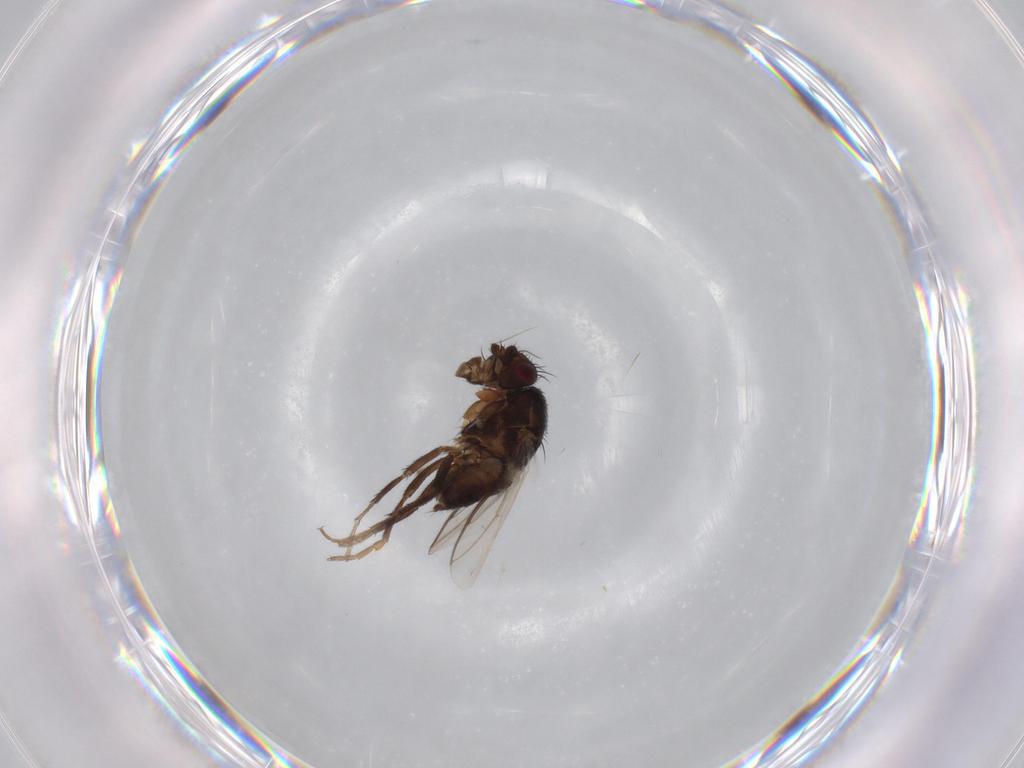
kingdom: Animalia
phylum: Arthropoda
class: Insecta
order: Diptera
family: Sphaeroceridae
